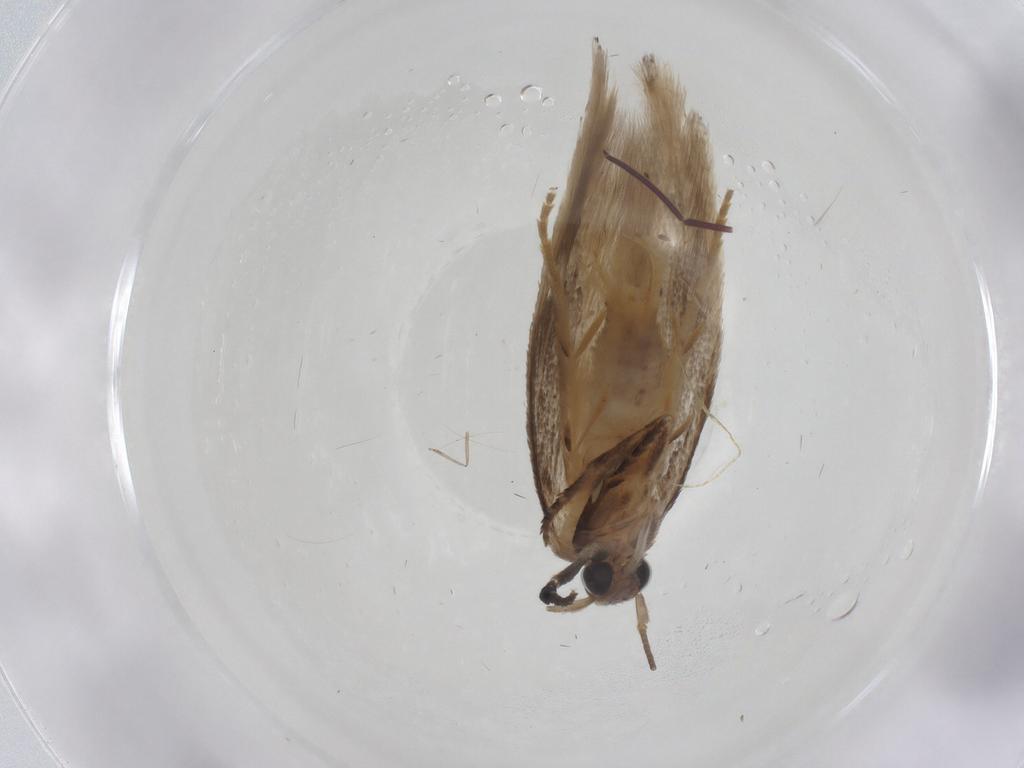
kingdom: Animalia
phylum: Arthropoda
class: Insecta
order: Lepidoptera
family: Elachistidae
